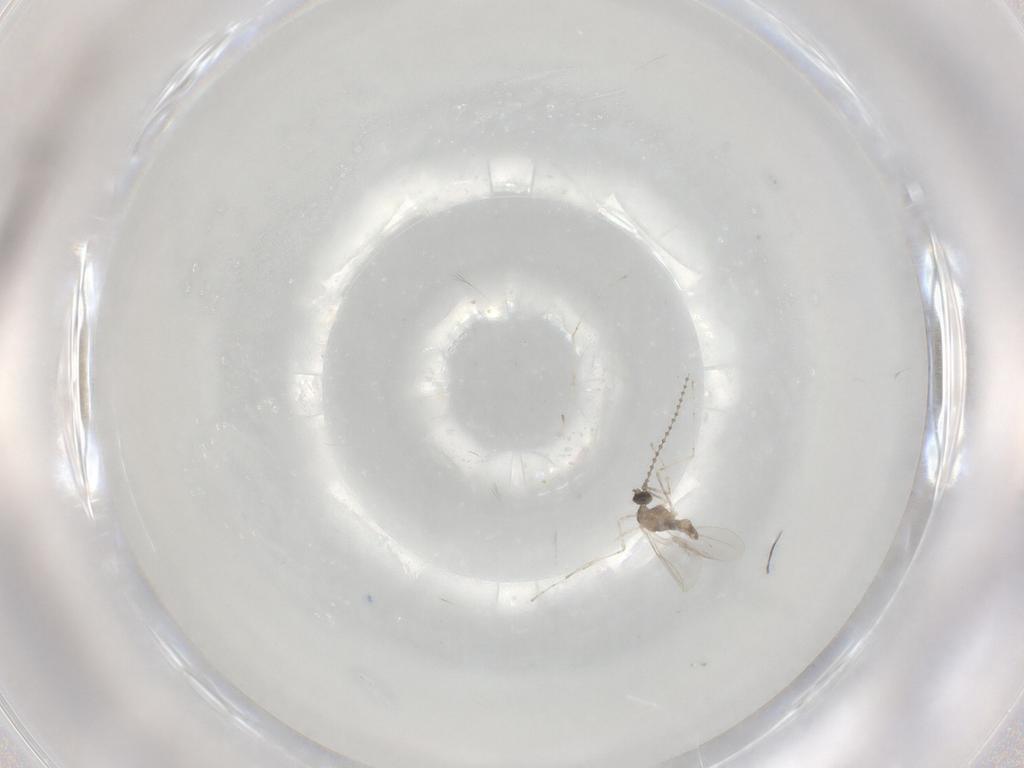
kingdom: Animalia
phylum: Arthropoda
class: Insecta
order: Diptera
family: Cecidomyiidae
